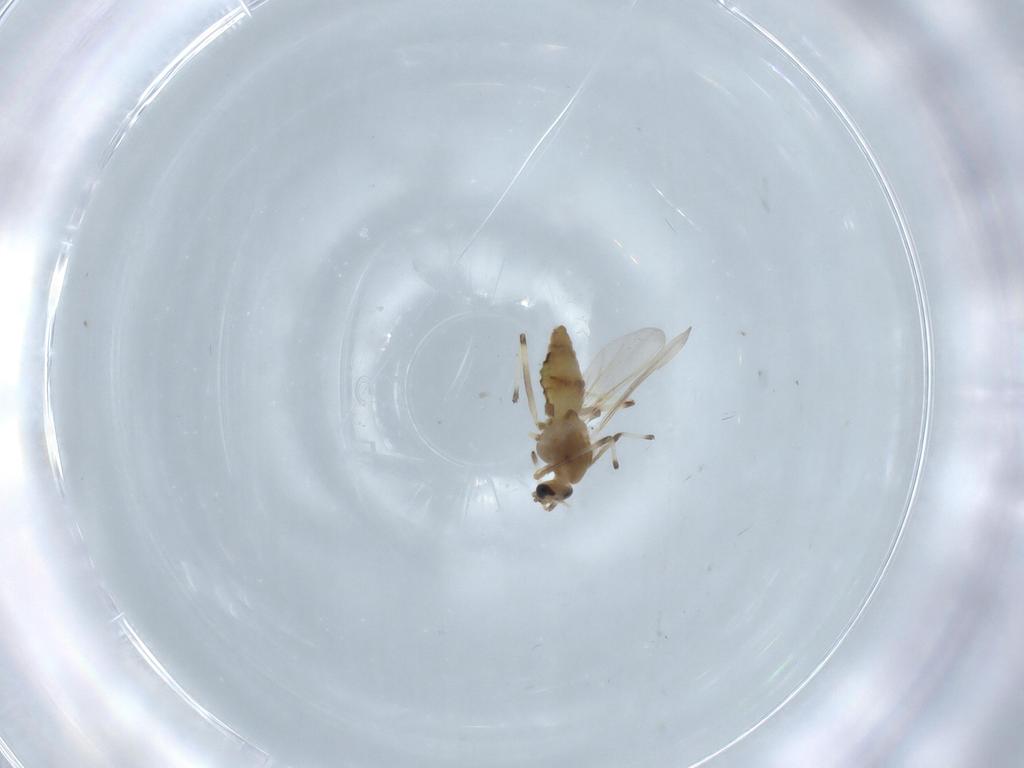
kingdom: Animalia
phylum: Arthropoda
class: Insecta
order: Diptera
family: Chironomidae
